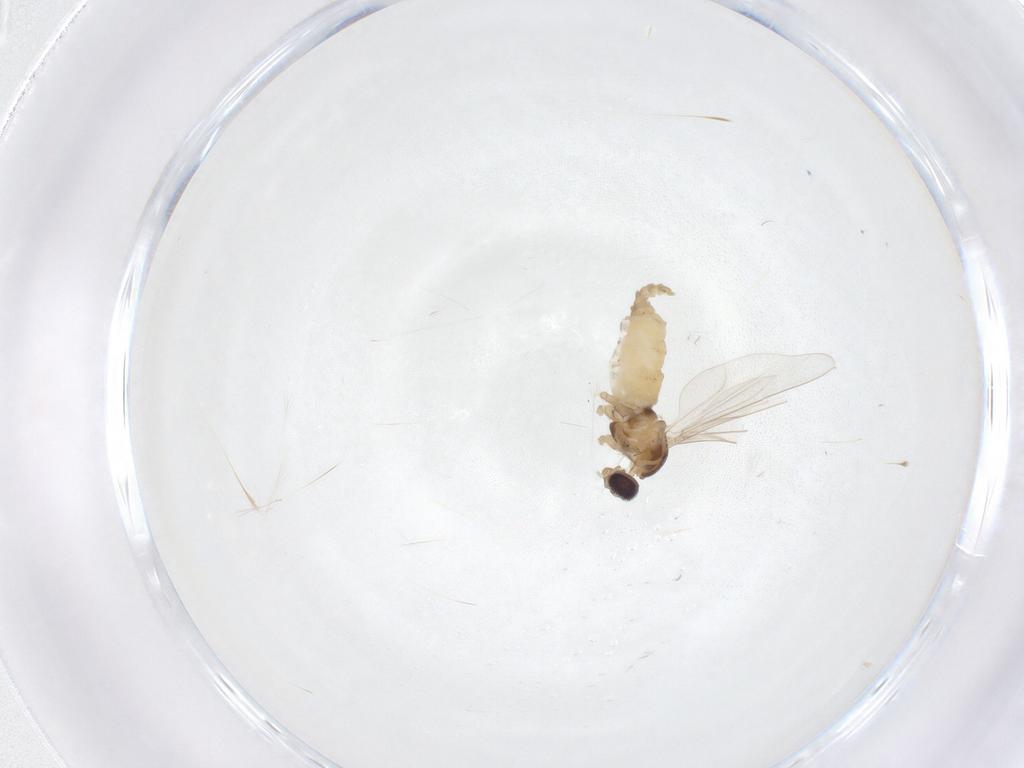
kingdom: Animalia
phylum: Arthropoda
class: Insecta
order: Diptera
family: Cecidomyiidae
